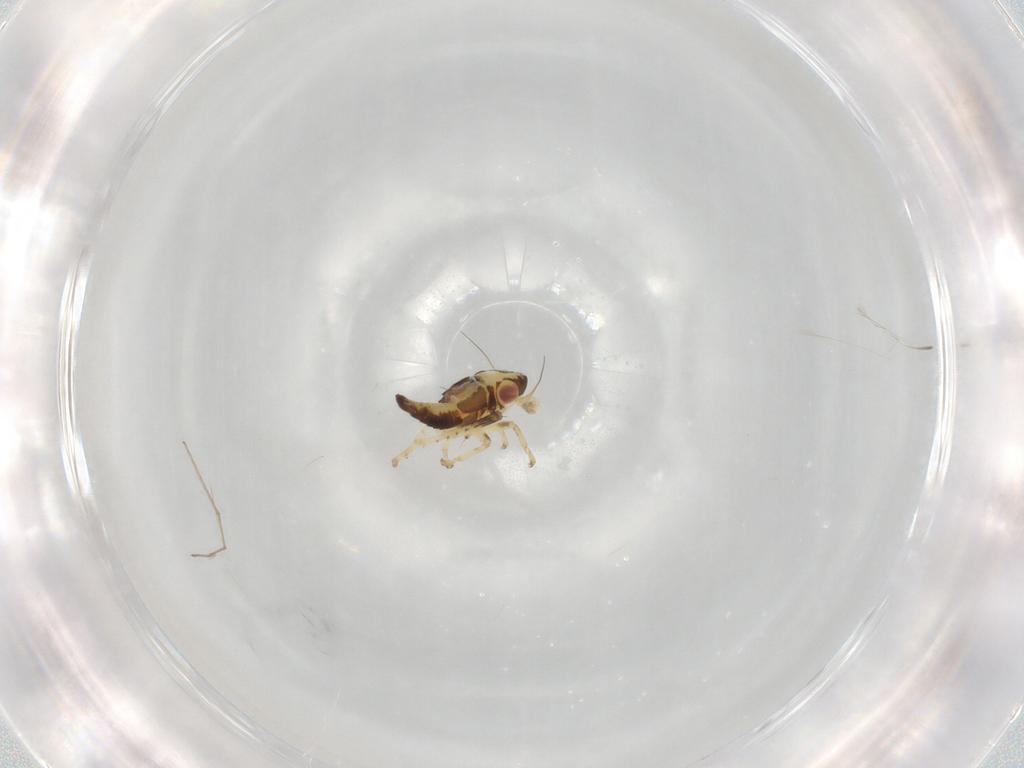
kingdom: Animalia
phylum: Arthropoda
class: Insecta
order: Hemiptera
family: Cicadellidae
